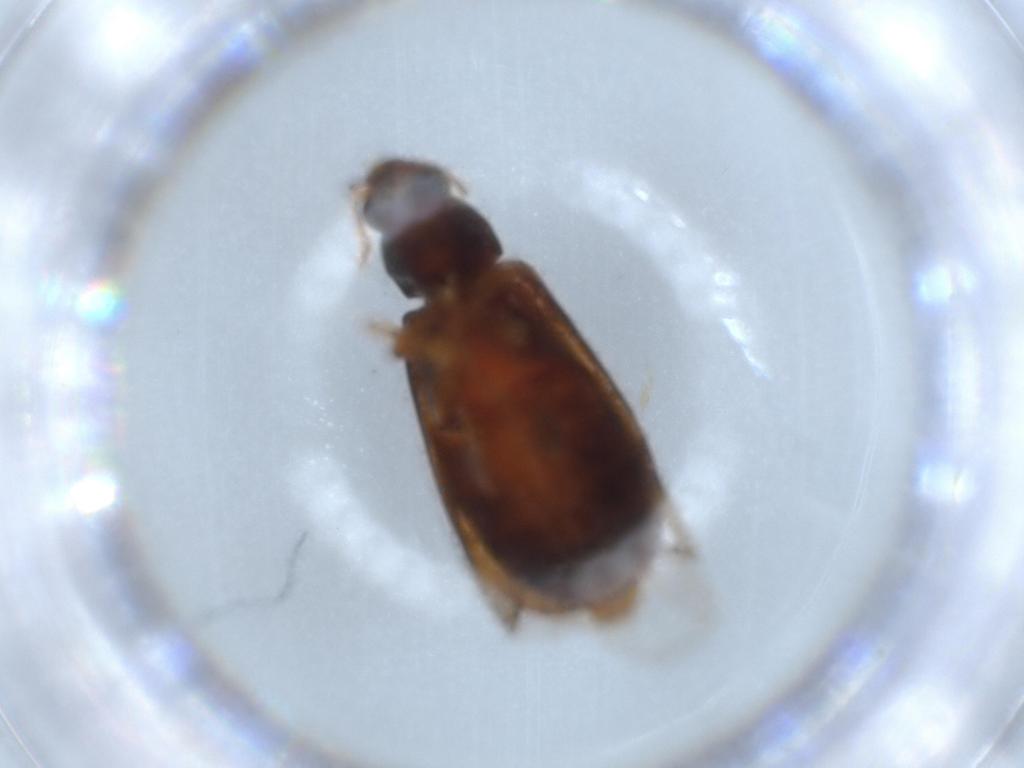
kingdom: Animalia
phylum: Arthropoda
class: Insecta
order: Coleoptera
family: Mycteridae
